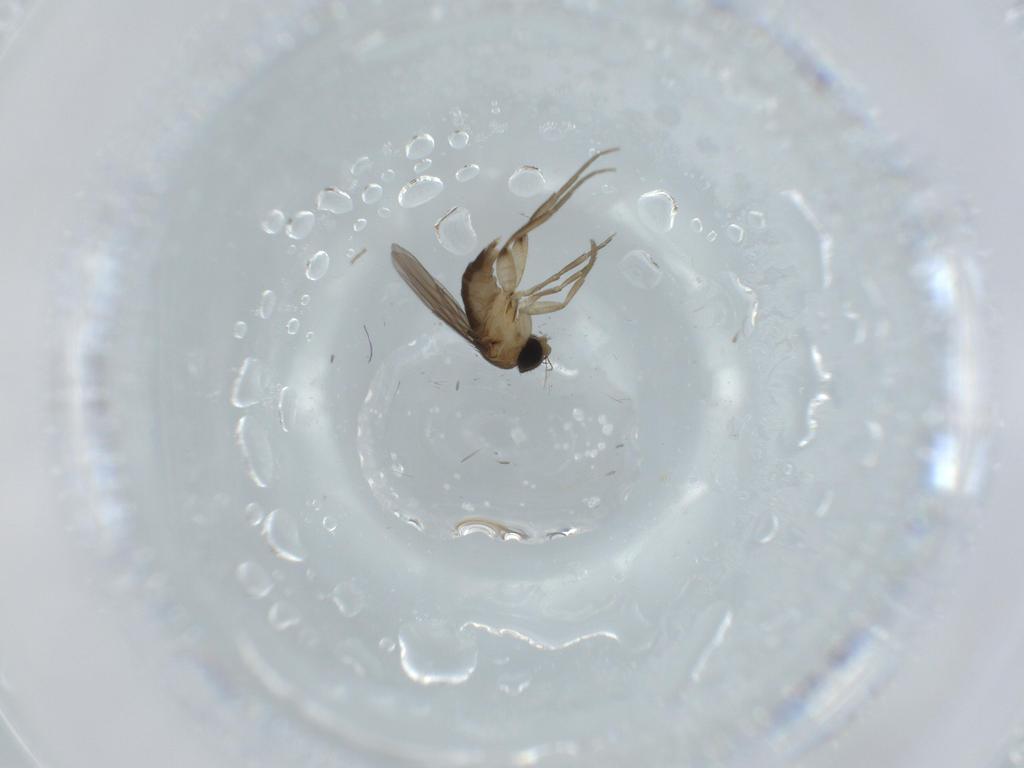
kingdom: Animalia
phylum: Arthropoda
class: Insecta
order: Diptera
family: Phoridae
